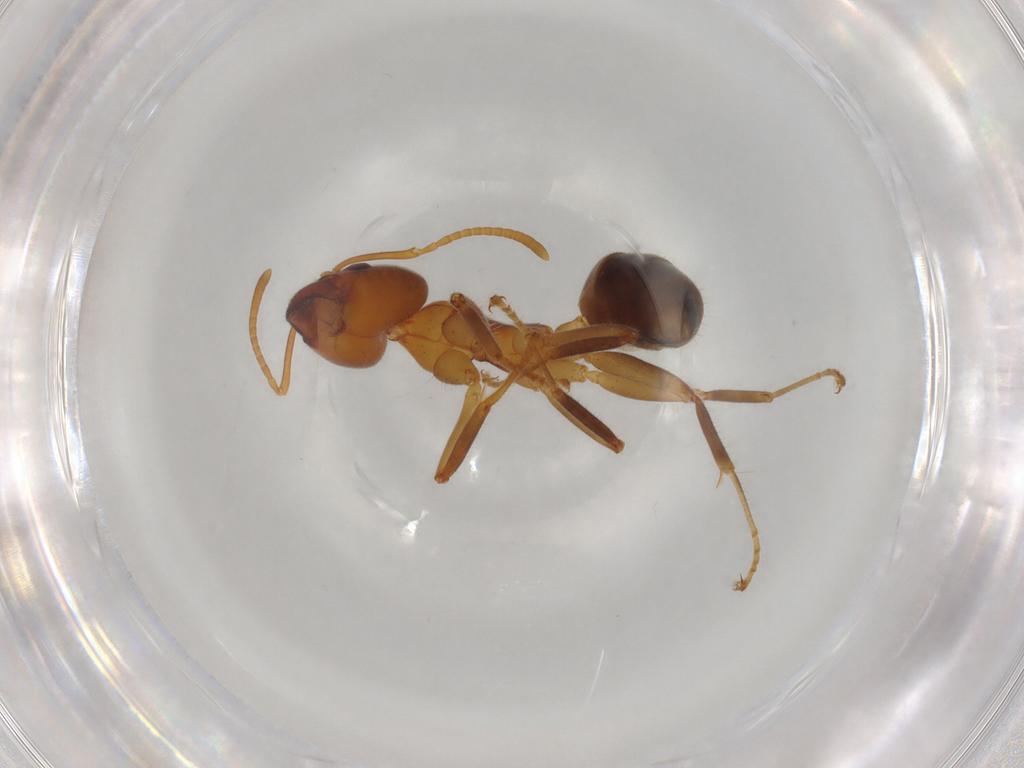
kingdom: Animalia
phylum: Arthropoda
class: Insecta
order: Hymenoptera
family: Formicidae
